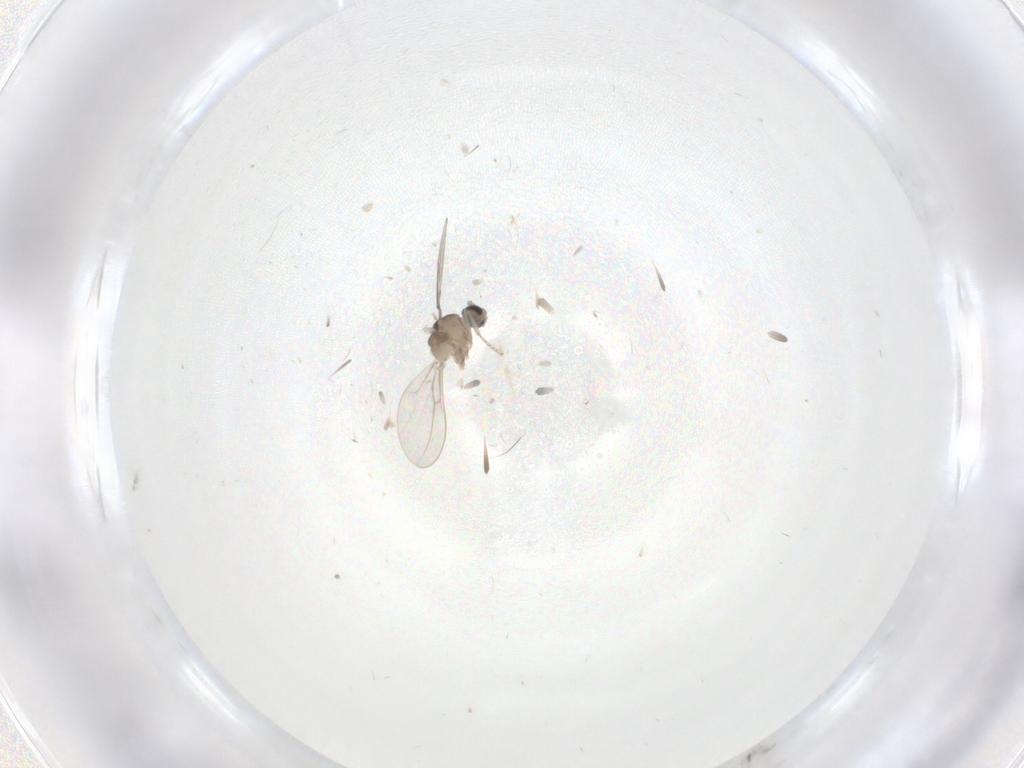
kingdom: Animalia
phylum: Arthropoda
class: Insecta
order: Diptera
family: Cecidomyiidae
